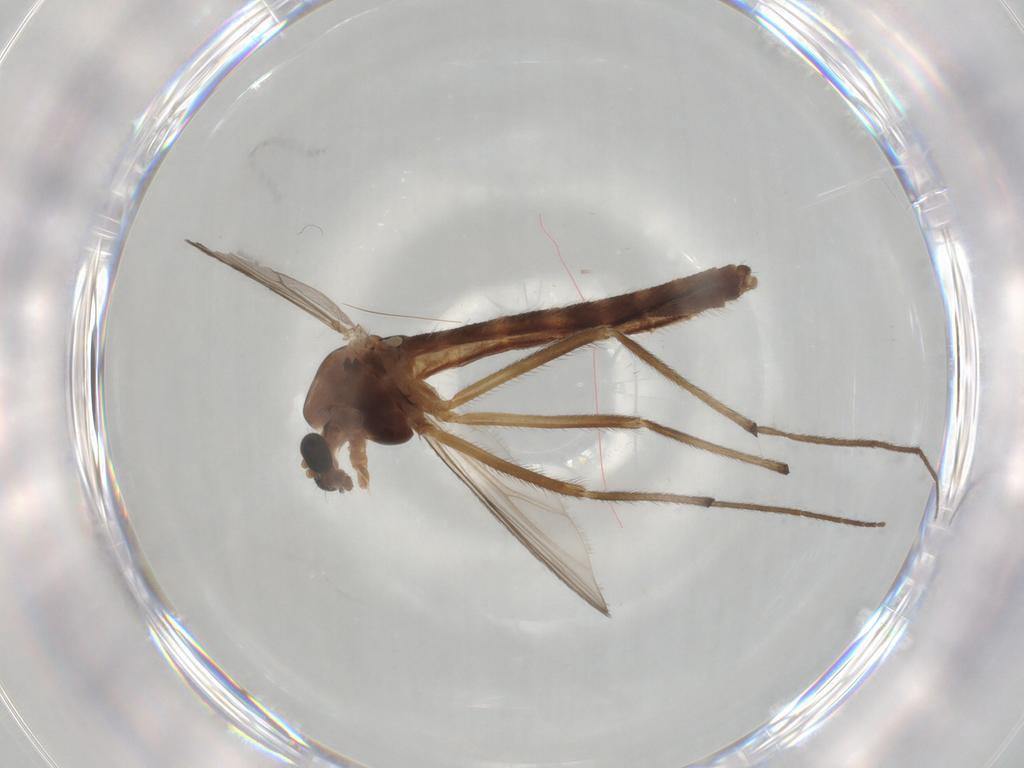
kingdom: Animalia
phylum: Arthropoda
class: Insecta
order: Diptera
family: Chironomidae
